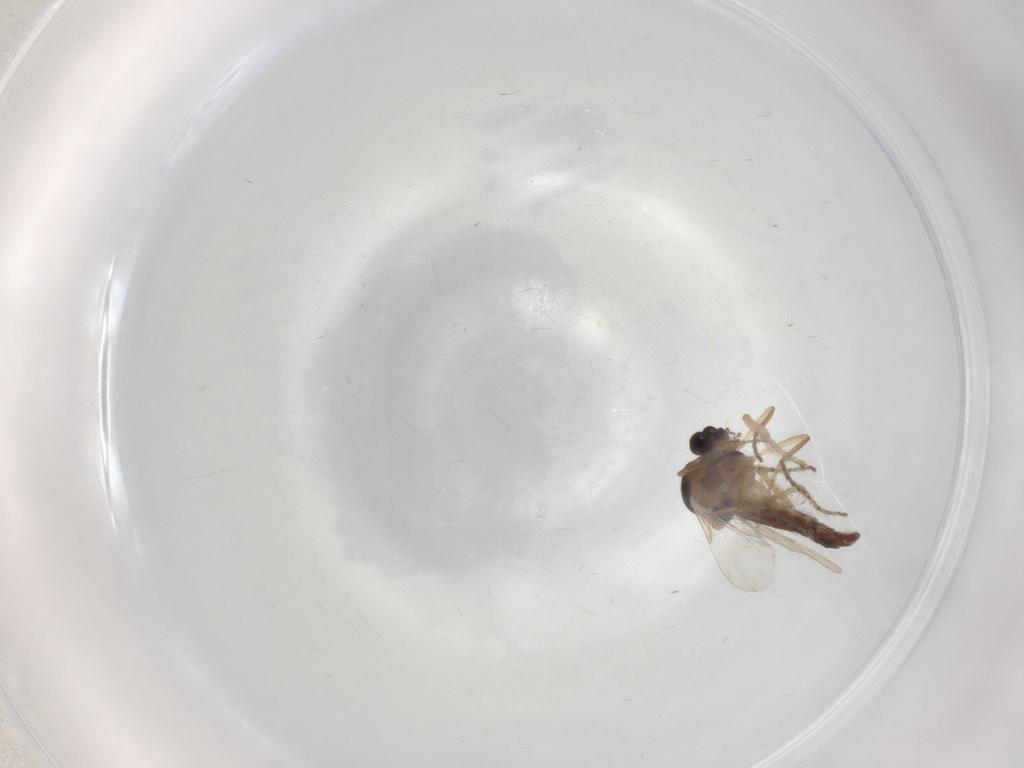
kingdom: Animalia
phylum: Arthropoda
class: Insecta
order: Diptera
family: Ceratopogonidae
